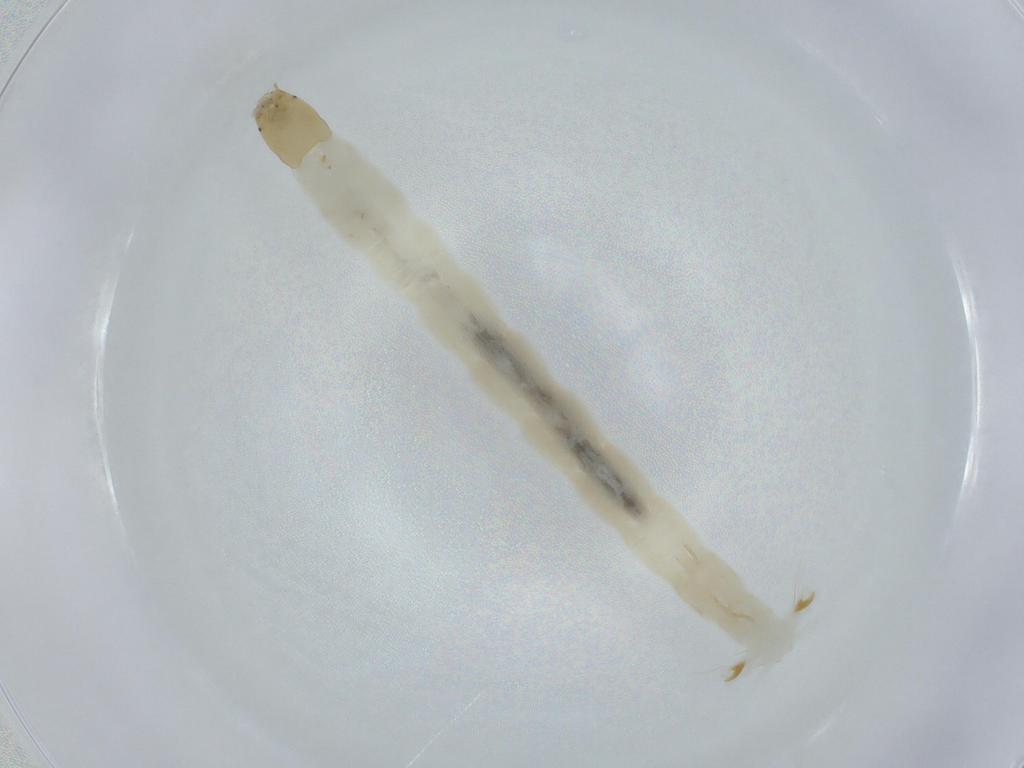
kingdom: Animalia
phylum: Arthropoda
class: Insecta
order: Diptera
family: Chironomidae
